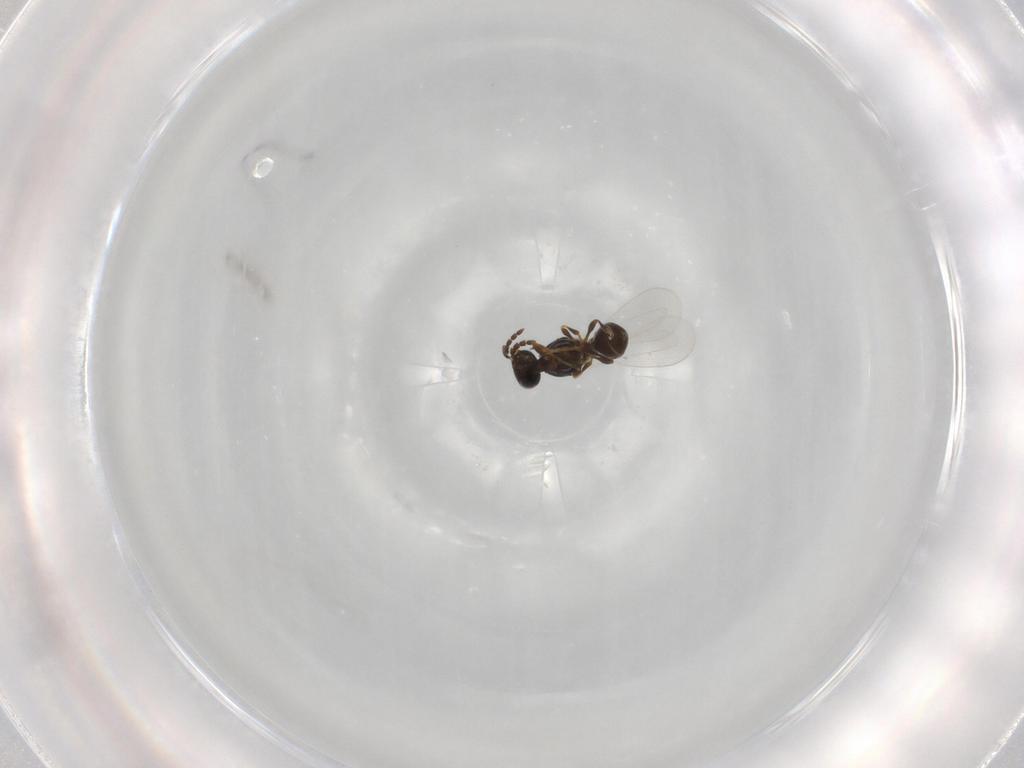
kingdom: Animalia
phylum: Arthropoda
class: Insecta
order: Hymenoptera
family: Platygastridae
